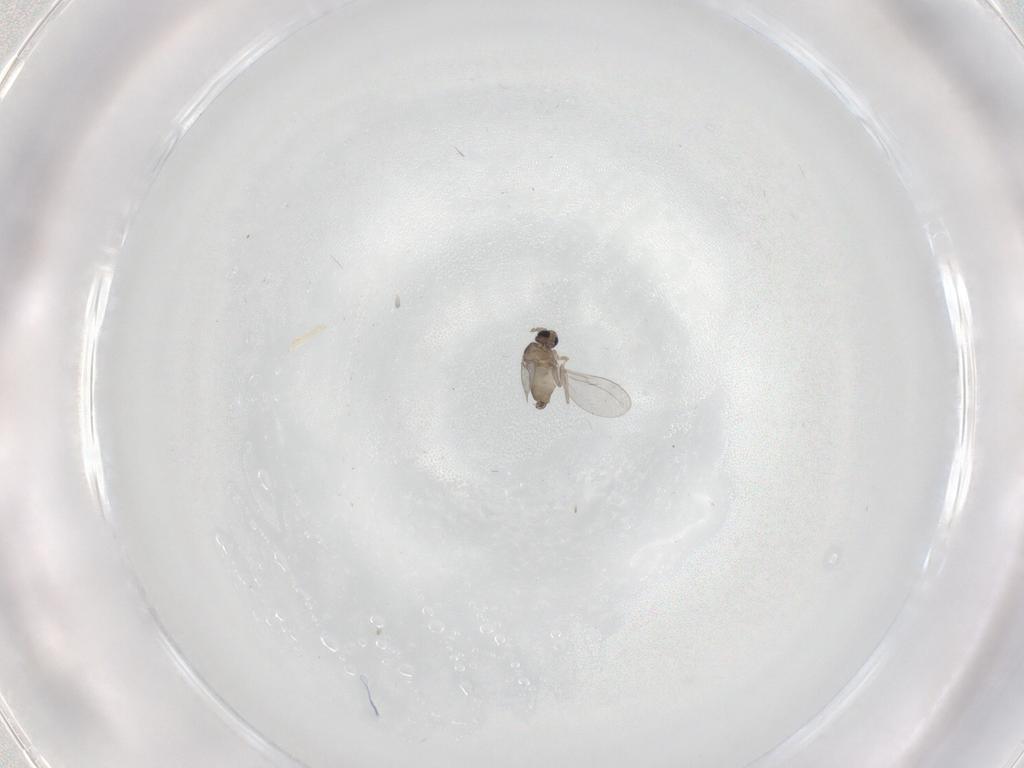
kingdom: Animalia
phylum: Arthropoda
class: Insecta
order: Diptera
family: Cecidomyiidae
